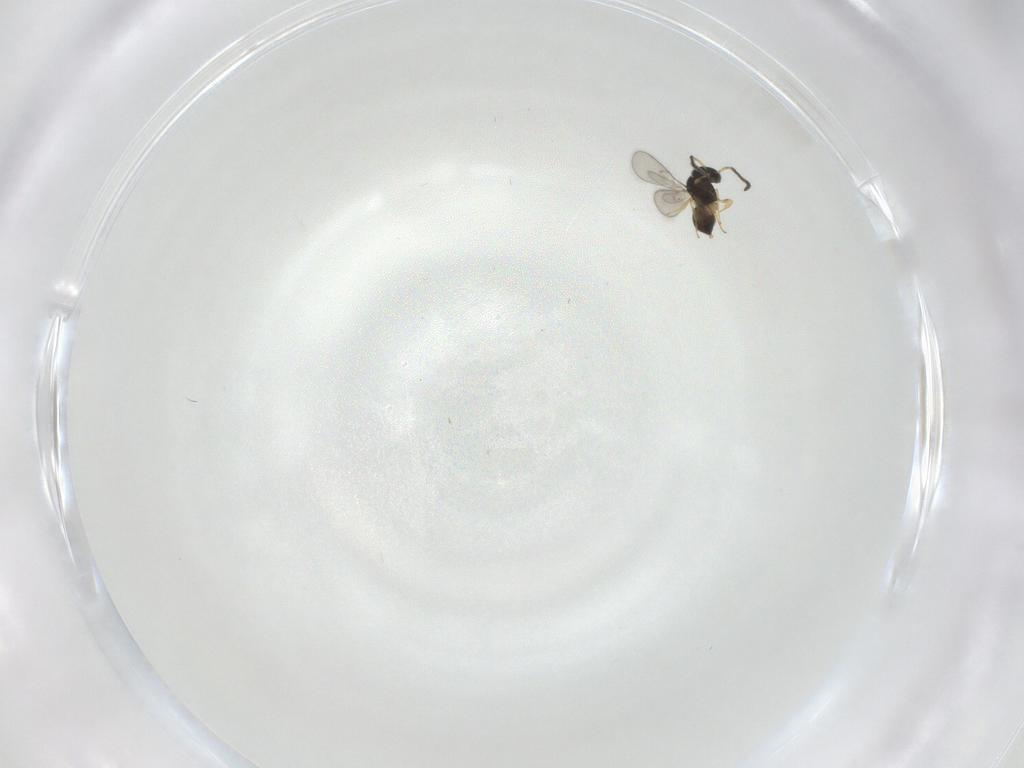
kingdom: Animalia
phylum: Arthropoda
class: Insecta
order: Hymenoptera
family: Scelionidae
